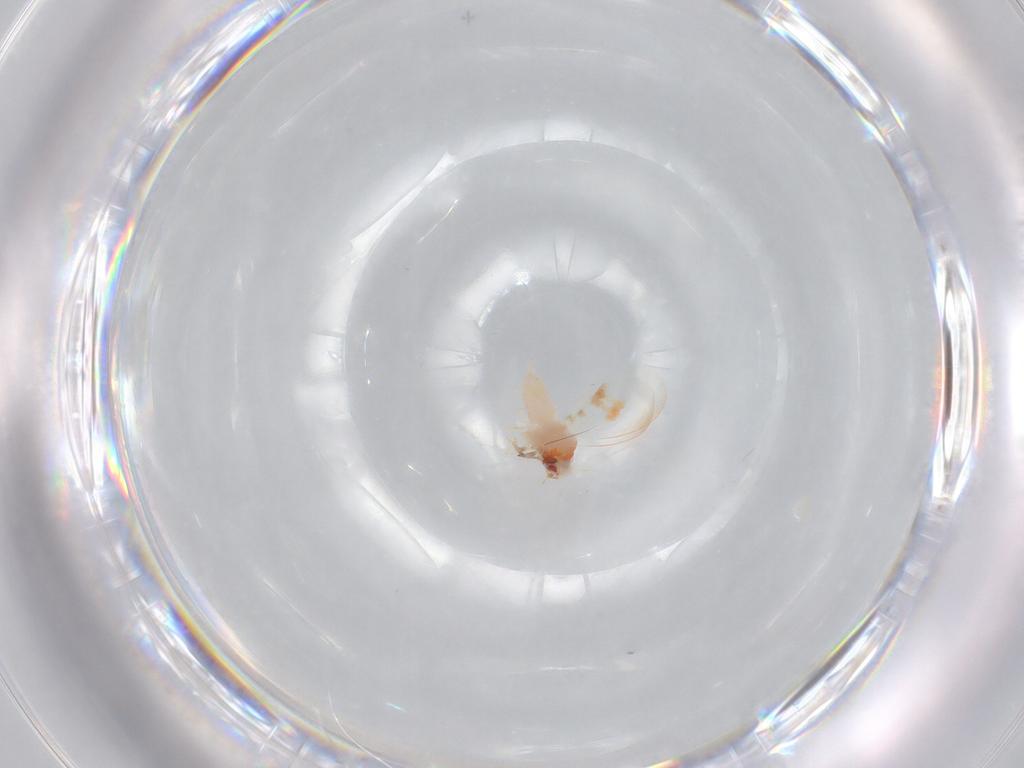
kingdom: Animalia
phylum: Arthropoda
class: Insecta
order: Hemiptera
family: Aleyrodidae
